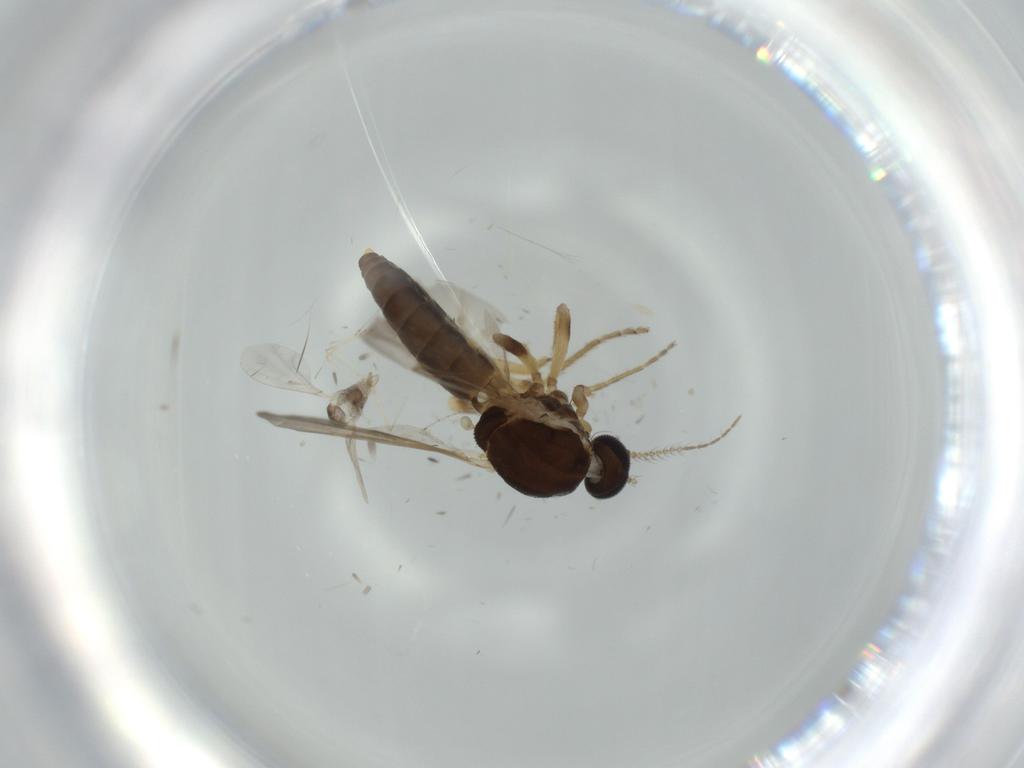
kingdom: Animalia
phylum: Arthropoda
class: Insecta
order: Diptera
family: Ceratopogonidae
